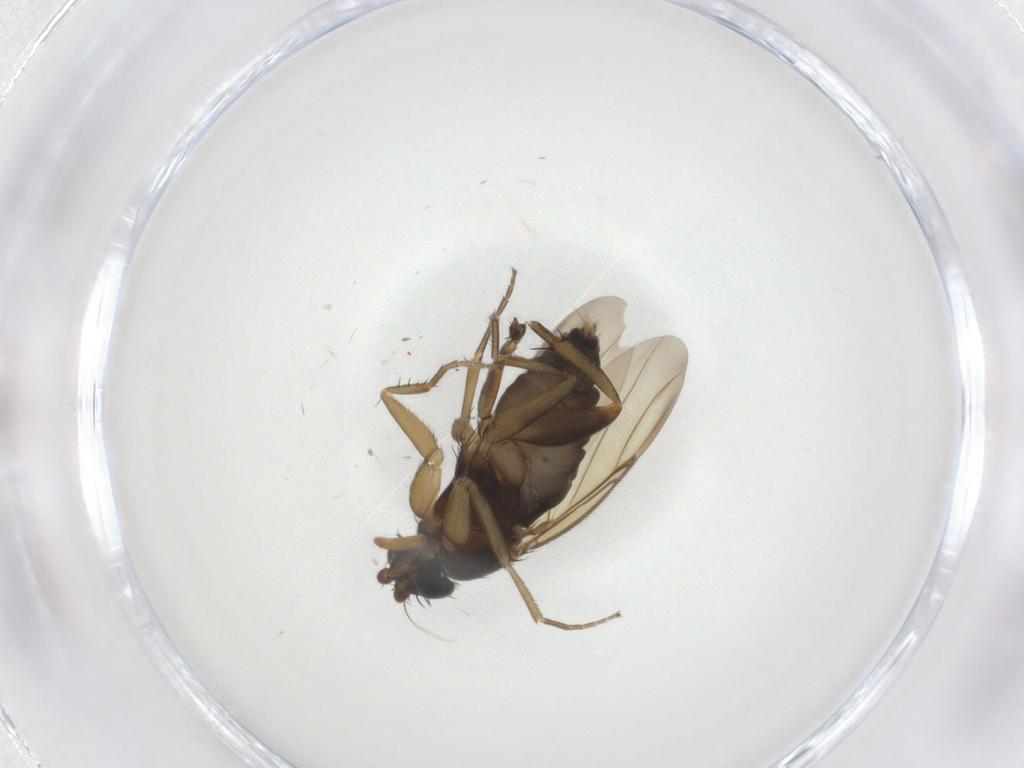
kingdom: Animalia
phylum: Arthropoda
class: Insecta
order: Diptera
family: Phoridae
